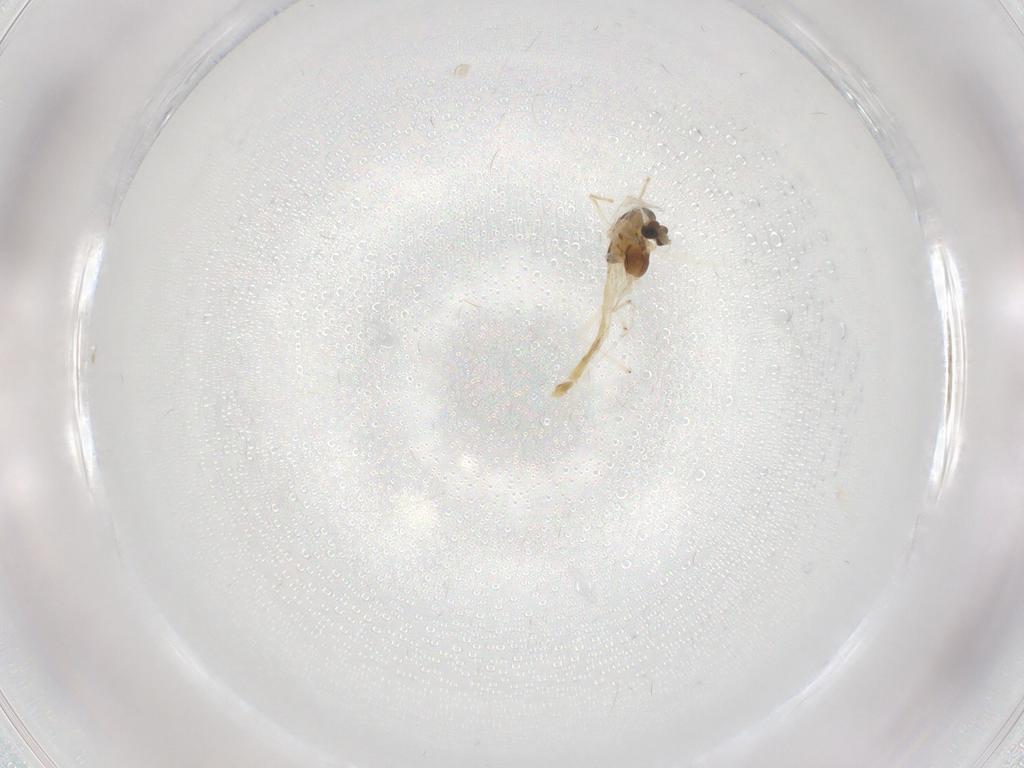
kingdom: Animalia
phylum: Arthropoda
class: Insecta
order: Diptera
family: Chironomidae
